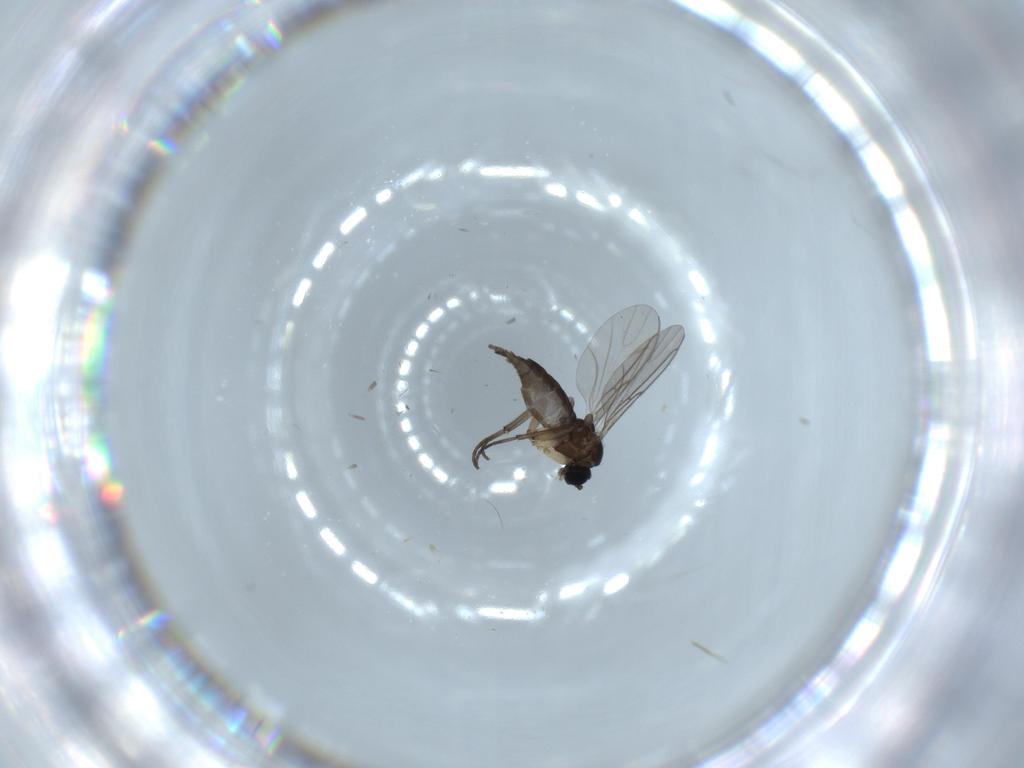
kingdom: Animalia
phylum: Arthropoda
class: Insecta
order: Diptera
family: Sciaridae
